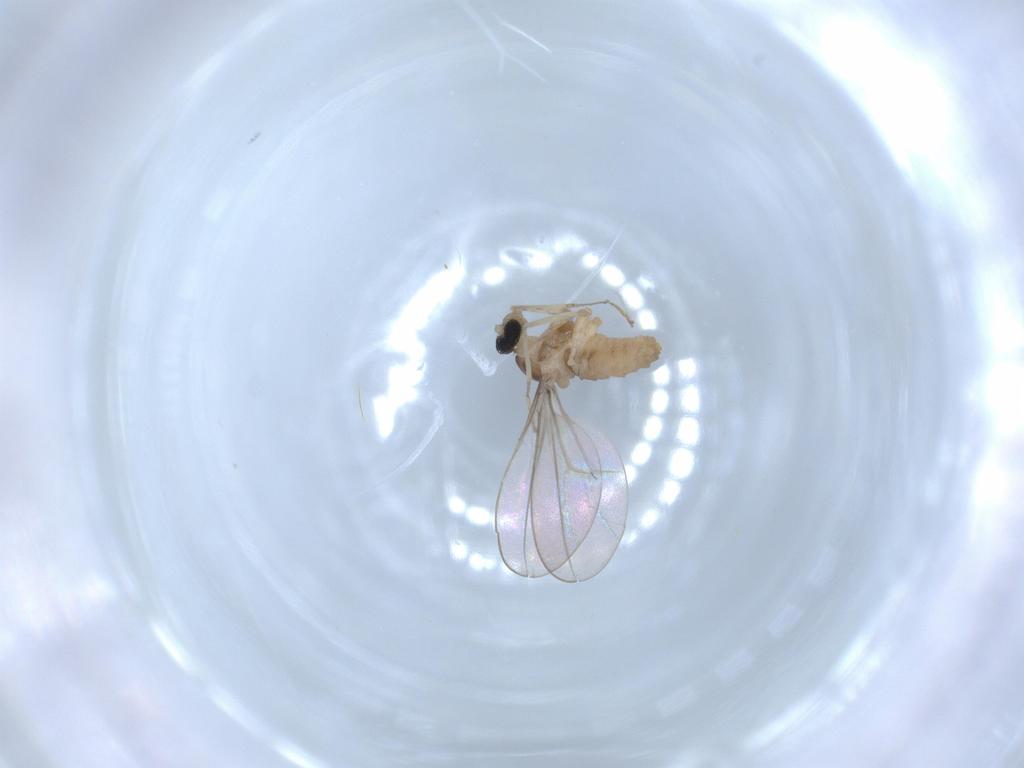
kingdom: Animalia
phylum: Arthropoda
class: Insecta
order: Diptera
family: Cecidomyiidae
